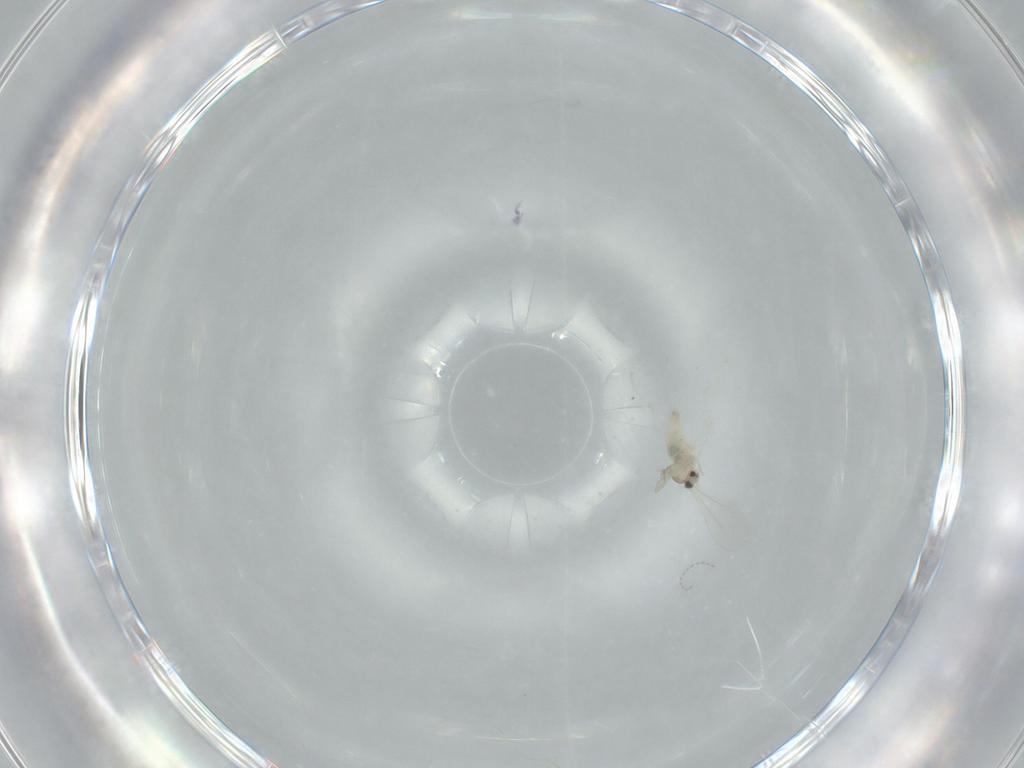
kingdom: Animalia
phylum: Arthropoda
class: Insecta
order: Diptera
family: Cecidomyiidae
